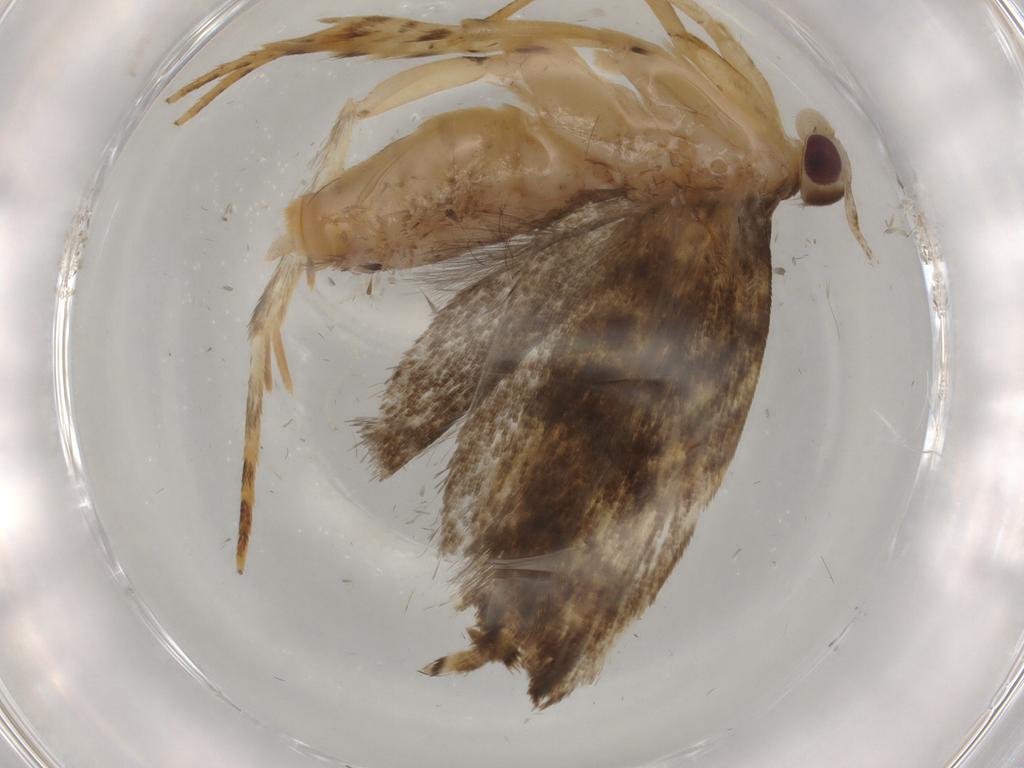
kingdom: Animalia
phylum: Arthropoda
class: Insecta
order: Lepidoptera
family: Gelechiidae
